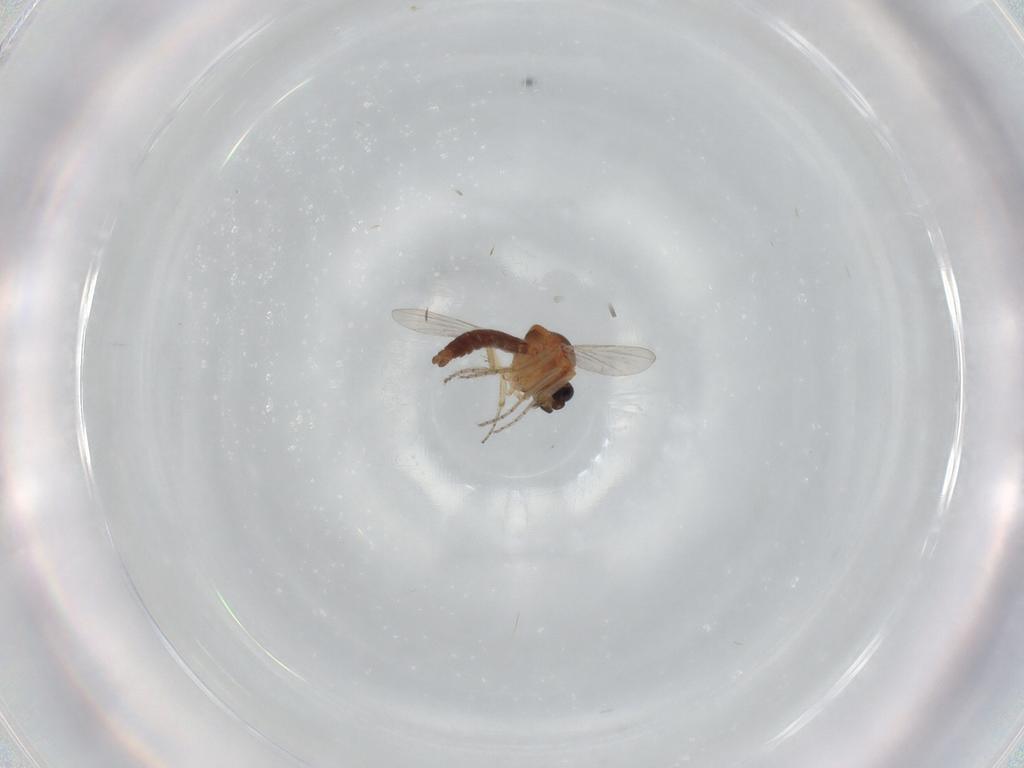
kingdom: Animalia
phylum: Arthropoda
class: Insecta
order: Diptera
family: Ceratopogonidae
